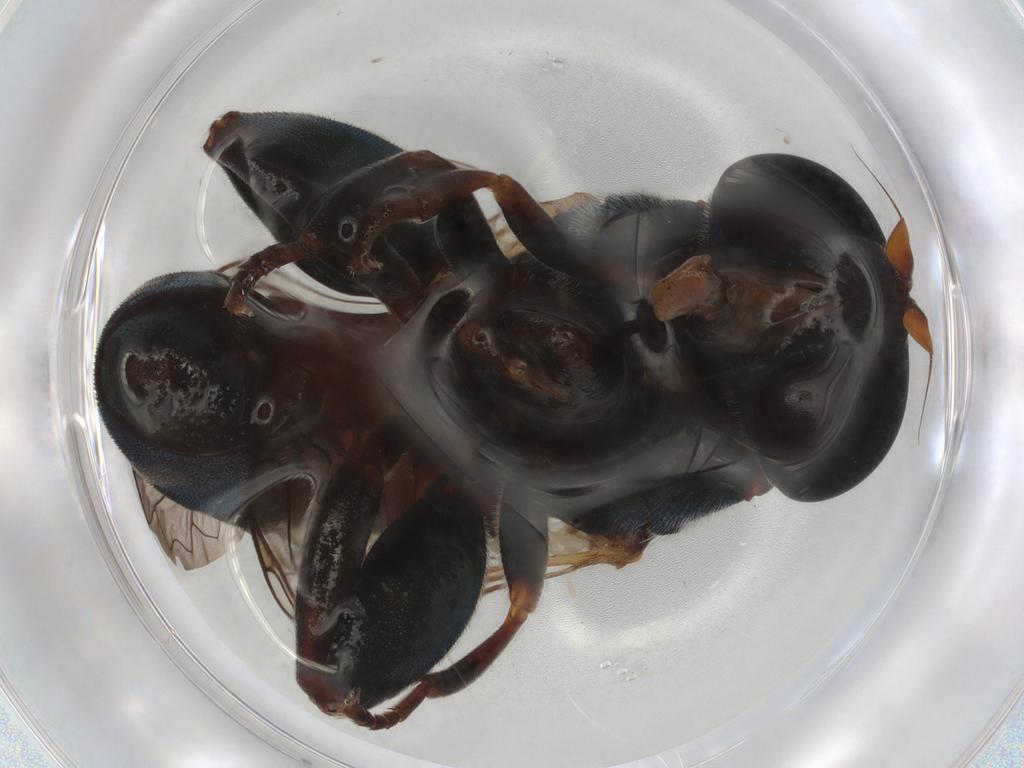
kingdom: Animalia
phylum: Arthropoda
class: Insecta
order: Diptera
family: Syrphidae
